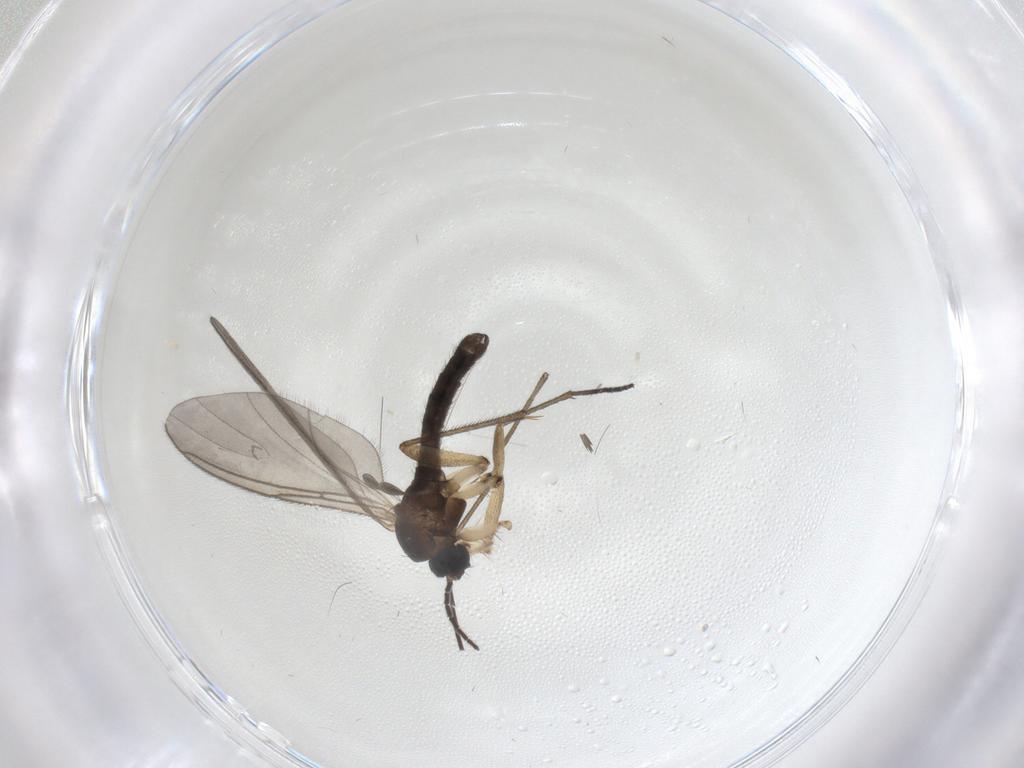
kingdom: Animalia
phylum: Arthropoda
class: Insecta
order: Diptera
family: Sciaridae
